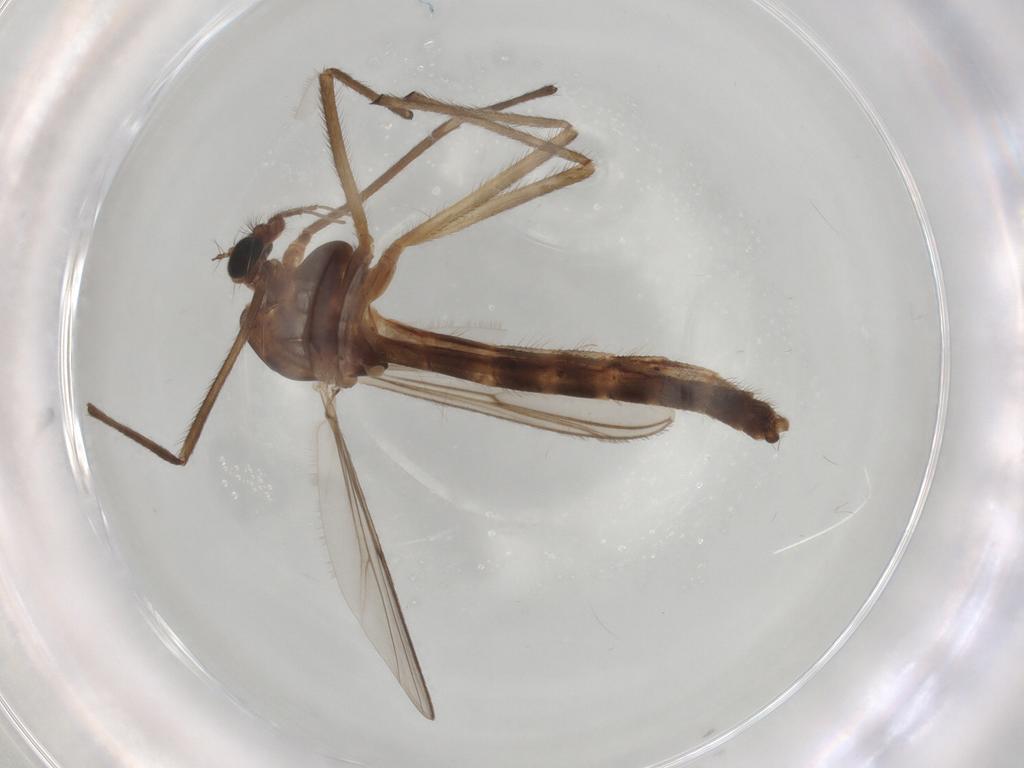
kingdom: Animalia
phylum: Arthropoda
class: Insecta
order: Diptera
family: Chironomidae
